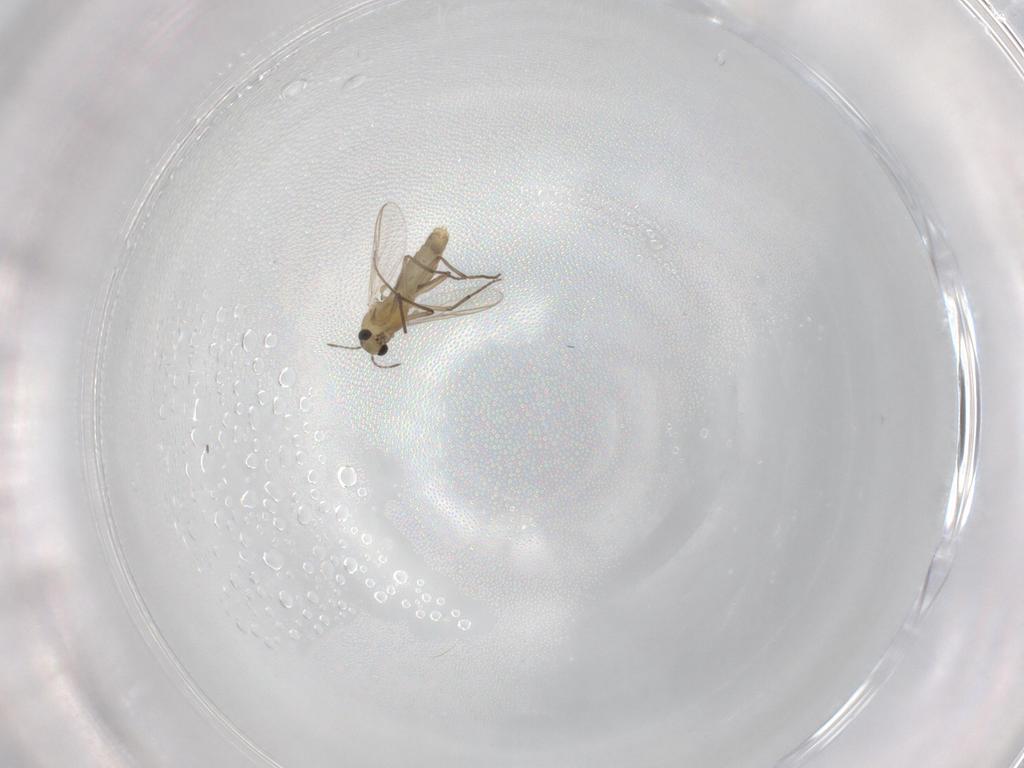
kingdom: Animalia
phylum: Arthropoda
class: Insecta
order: Diptera
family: Chironomidae
